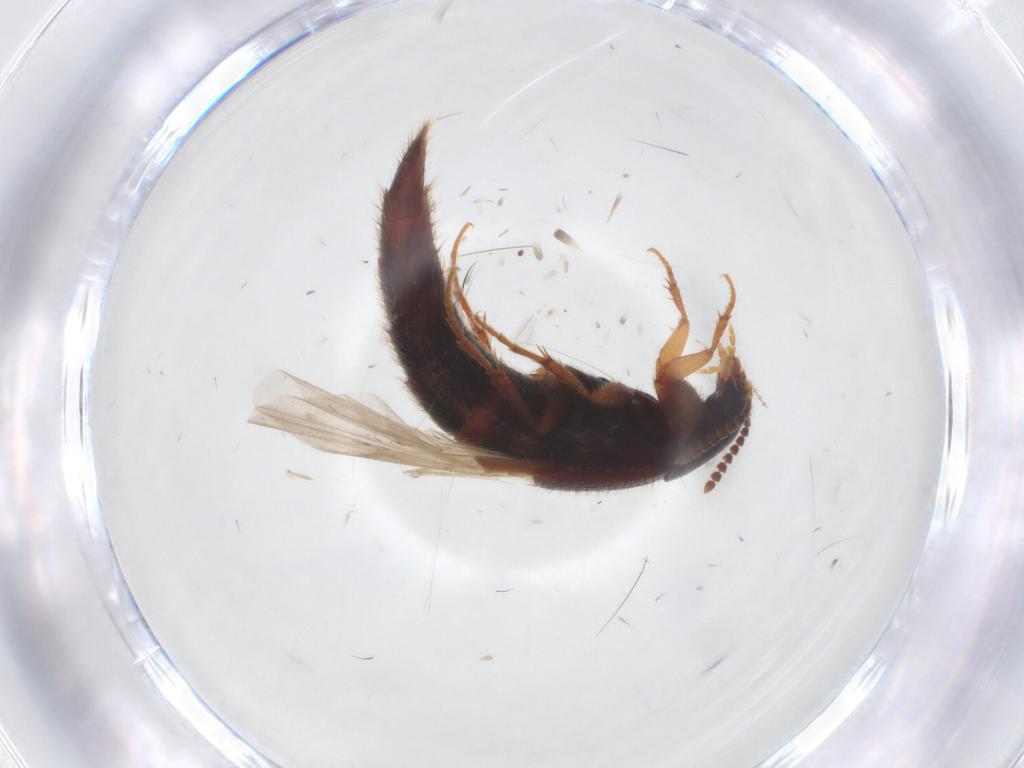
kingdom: Animalia
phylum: Arthropoda
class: Insecta
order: Coleoptera
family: Staphylinidae
